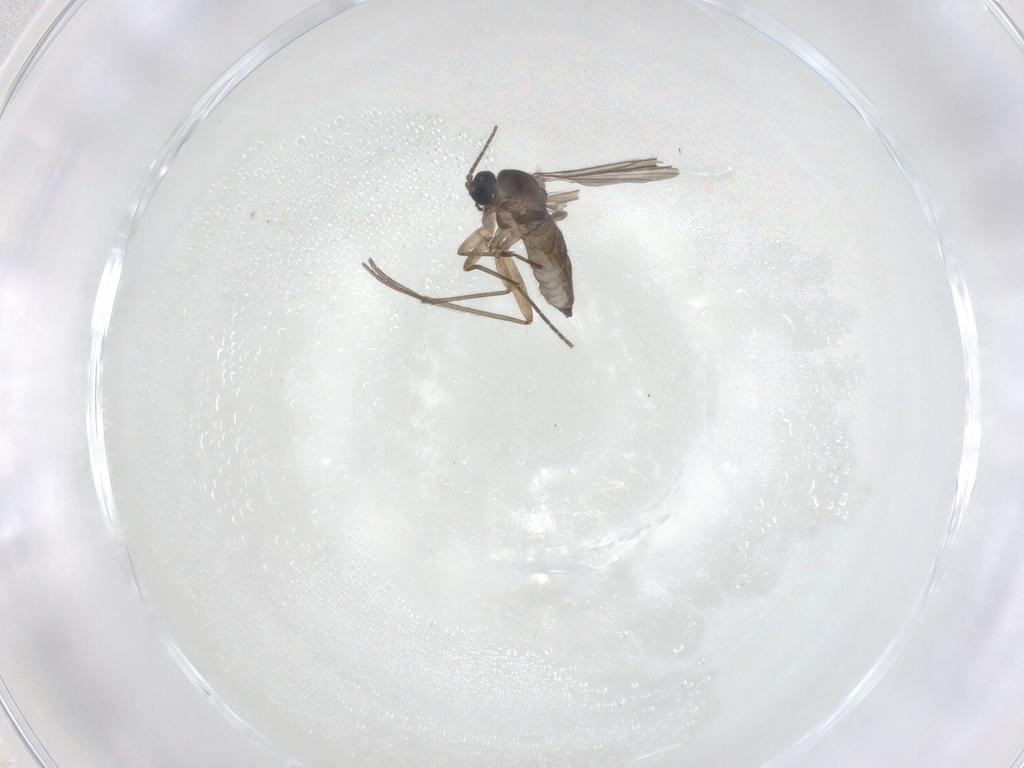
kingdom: Animalia
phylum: Arthropoda
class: Insecta
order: Diptera
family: Sciaridae
